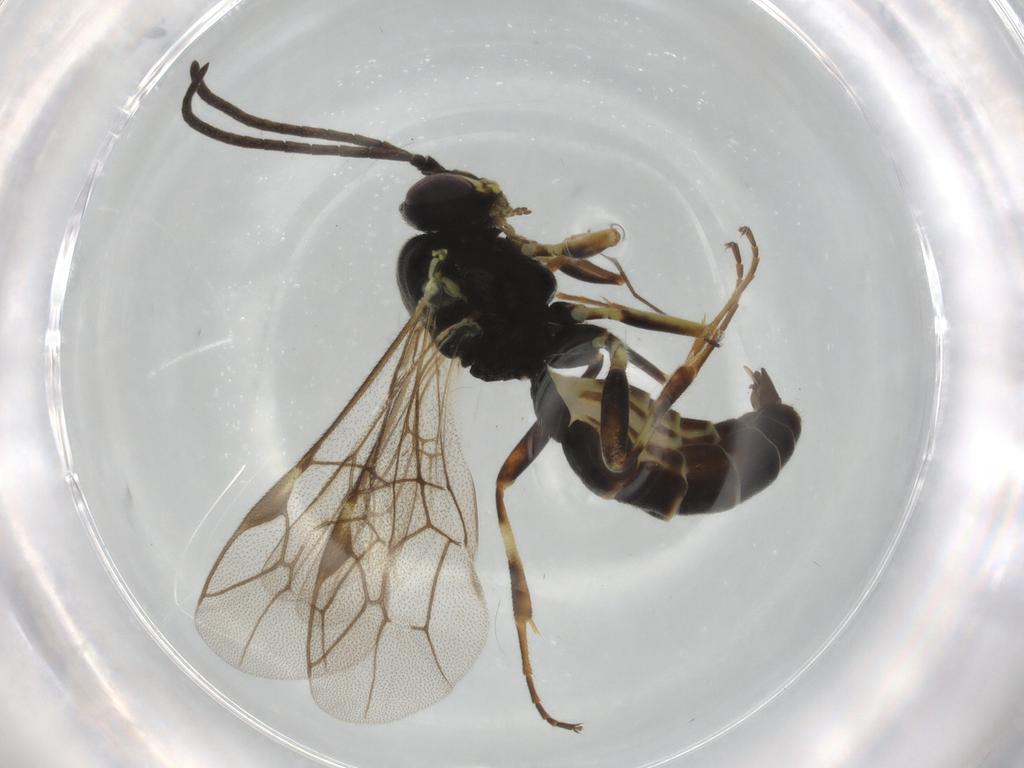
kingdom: Animalia
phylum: Arthropoda
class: Insecta
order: Hymenoptera
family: Ichneumonidae
